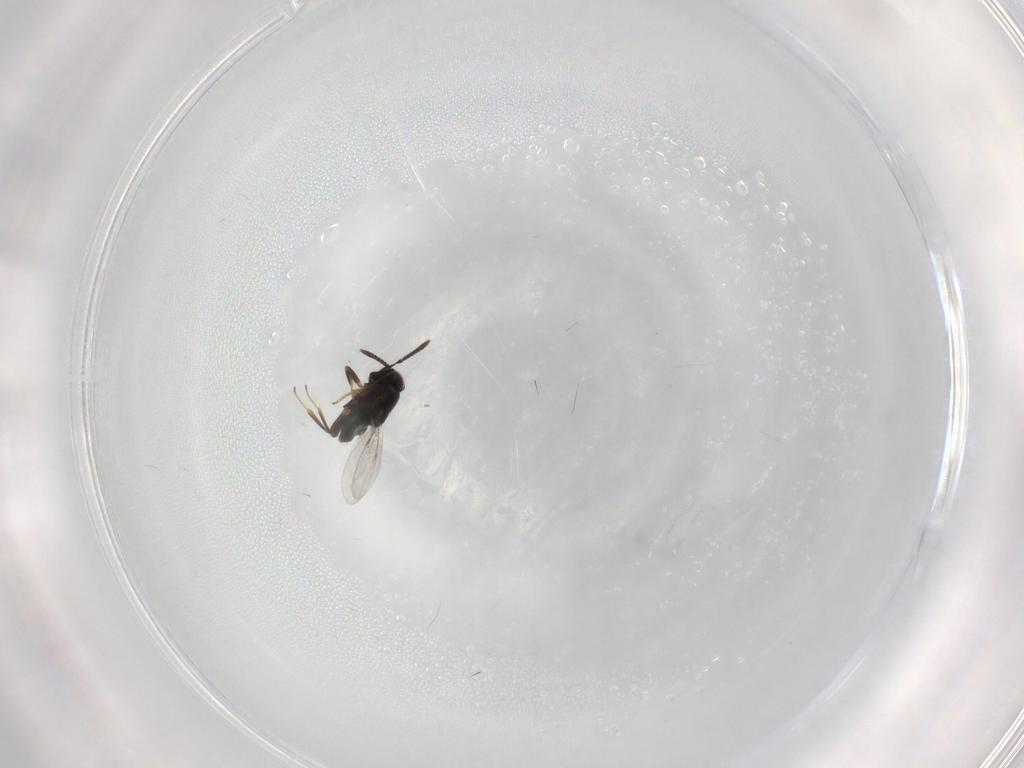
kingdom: Animalia
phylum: Arthropoda
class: Insecta
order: Hymenoptera
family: Encyrtidae
